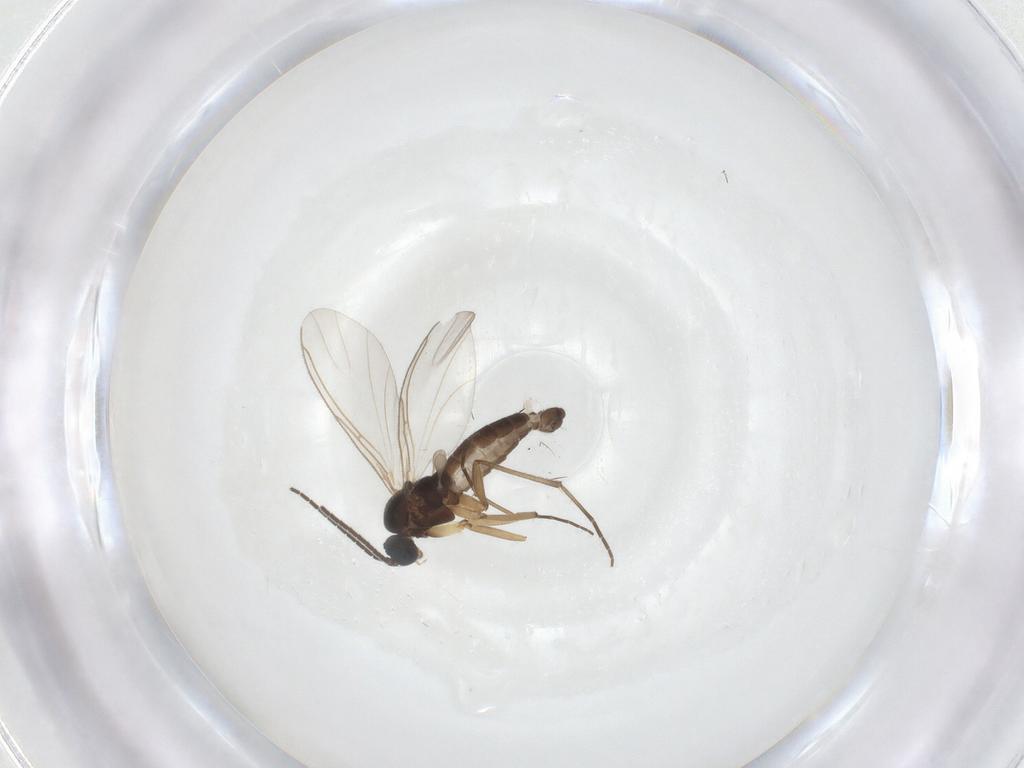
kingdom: Animalia
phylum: Arthropoda
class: Insecta
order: Diptera
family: Sciaridae
